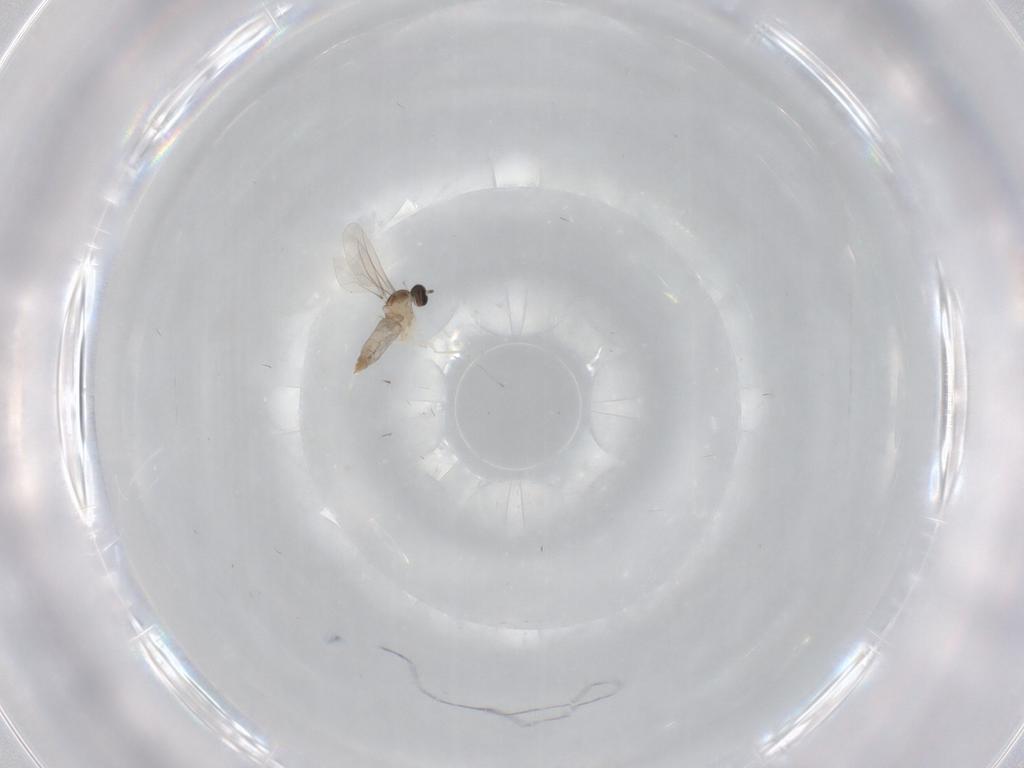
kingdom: Animalia
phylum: Arthropoda
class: Insecta
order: Diptera
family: Cecidomyiidae
